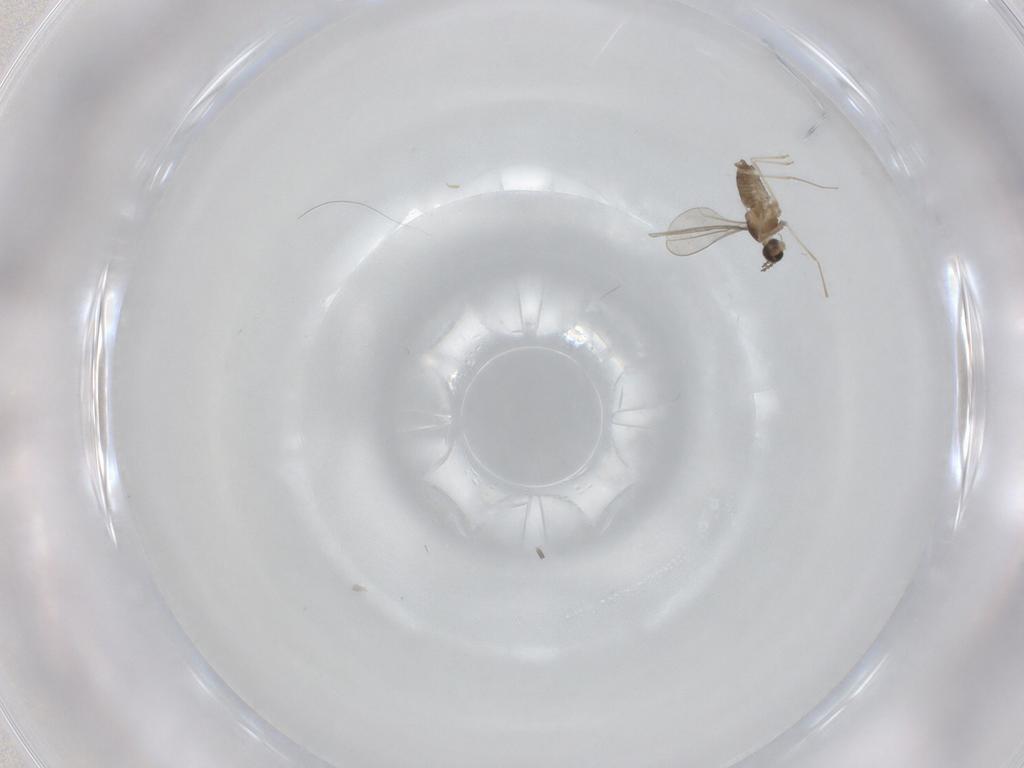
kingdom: Animalia
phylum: Arthropoda
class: Insecta
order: Diptera
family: Cecidomyiidae
